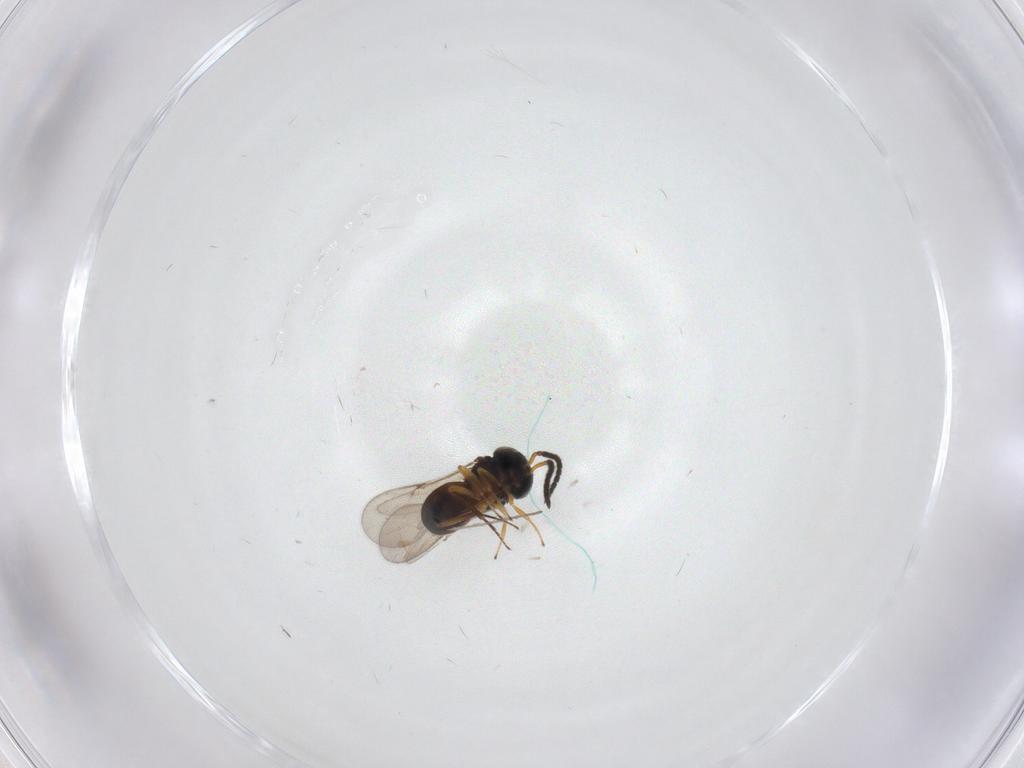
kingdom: Animalia
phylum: Arthropoda
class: Insecta
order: Hymenoptera
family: Scelionidae
